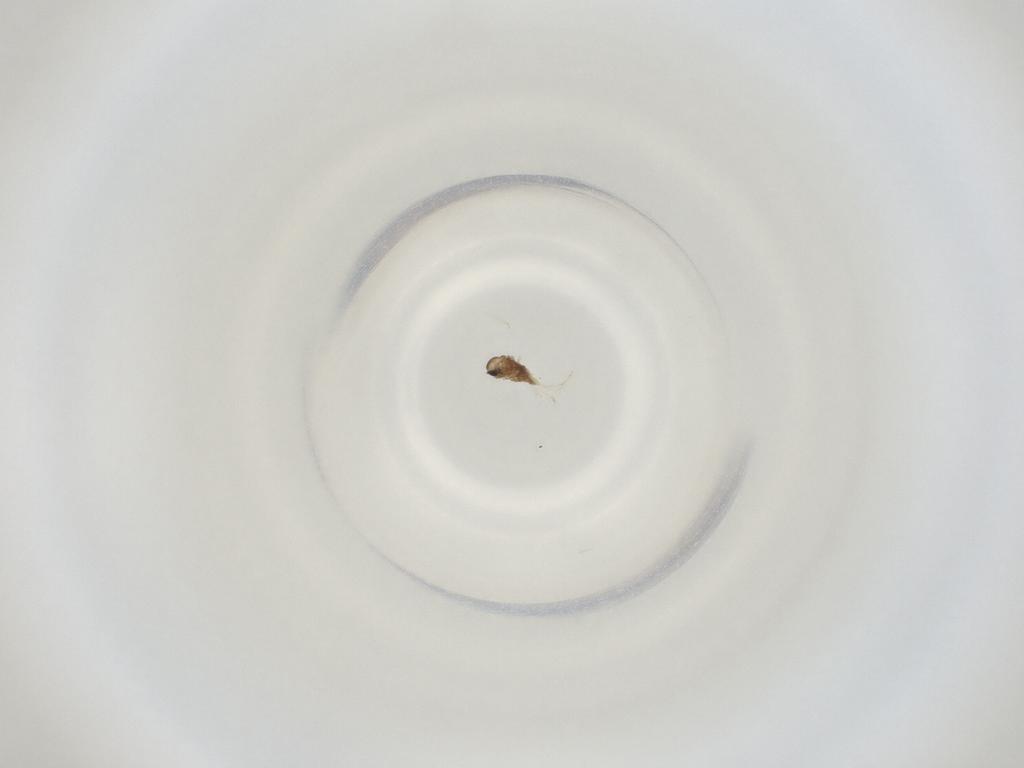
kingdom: Animalia
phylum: Arthropoda
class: Insecta
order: Diptera
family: Cecidomyiidae
